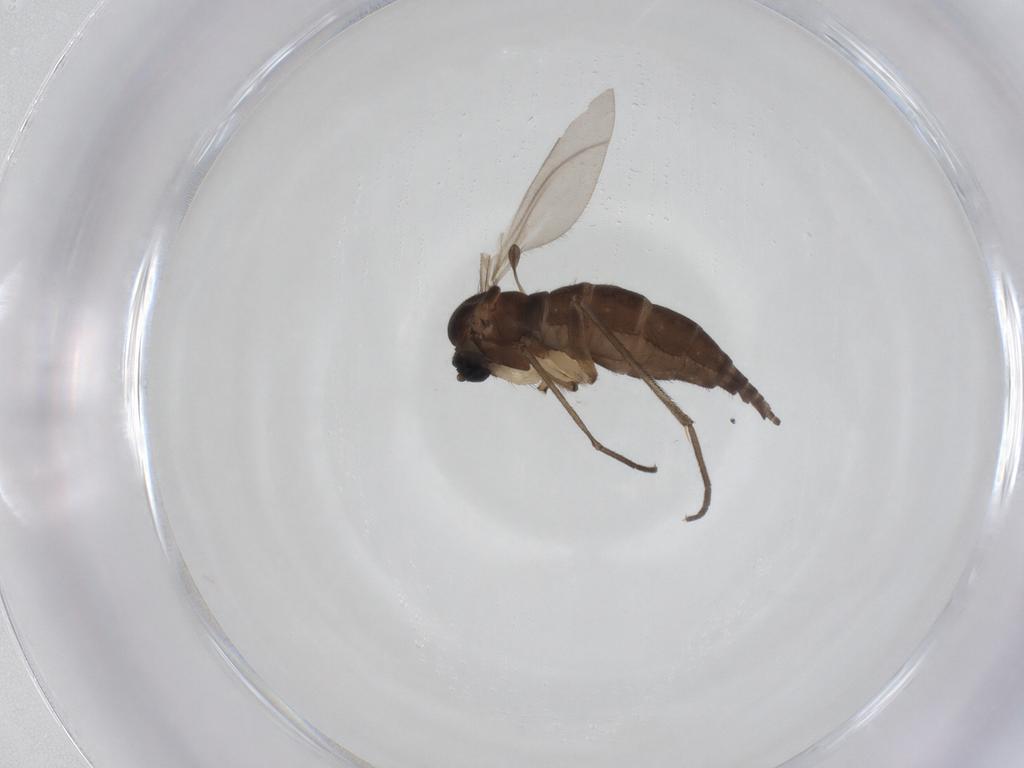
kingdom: Animalia
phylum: Arthropoda
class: Insecta
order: Diptera
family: Sciaridae
